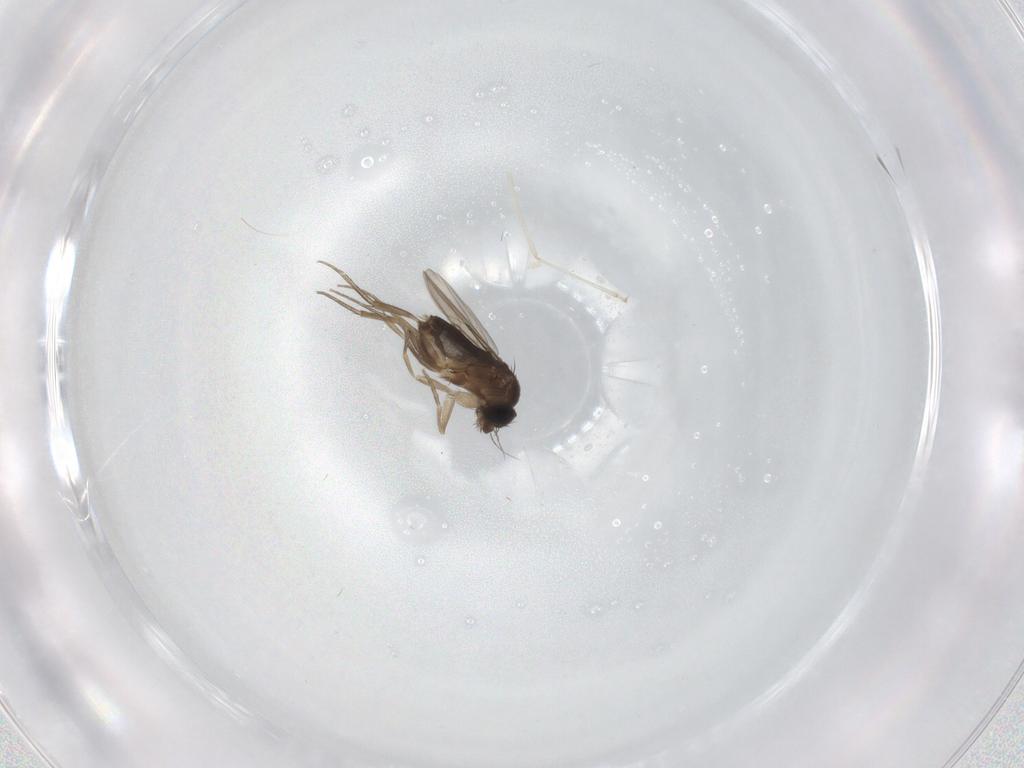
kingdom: Animalia
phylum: Arthropoda
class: Insecta
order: Diptera
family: Cecidomyiidae
